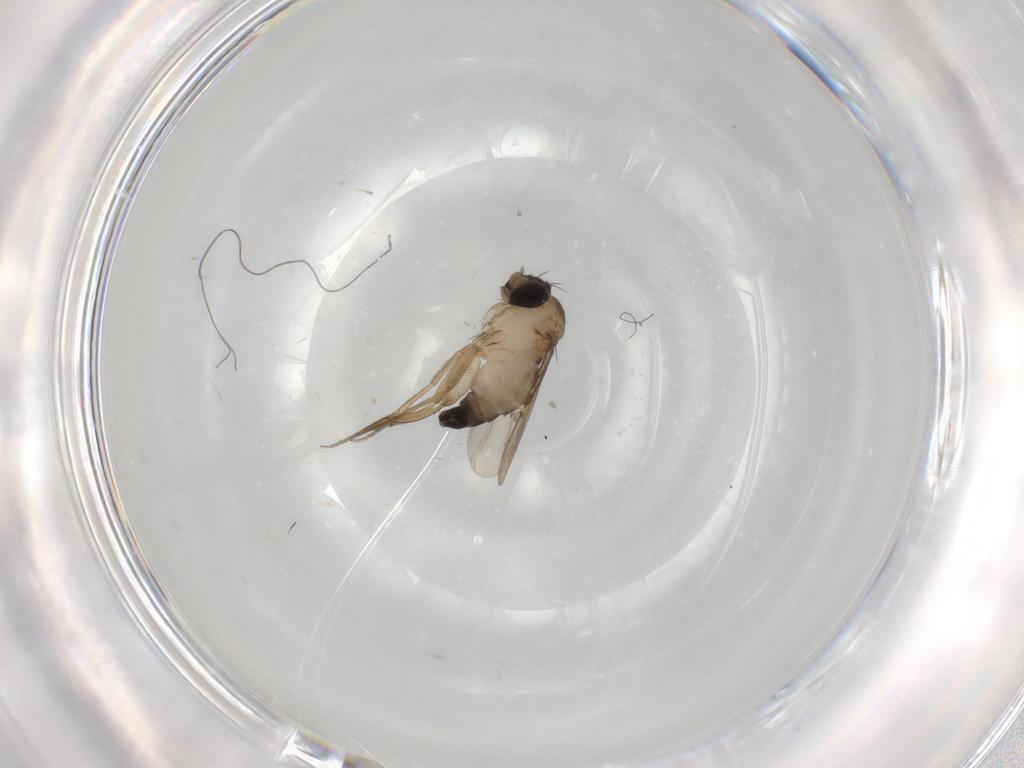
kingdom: Animalia
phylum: Arthropoda
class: Insecta
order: Diptera
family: Phoridae
